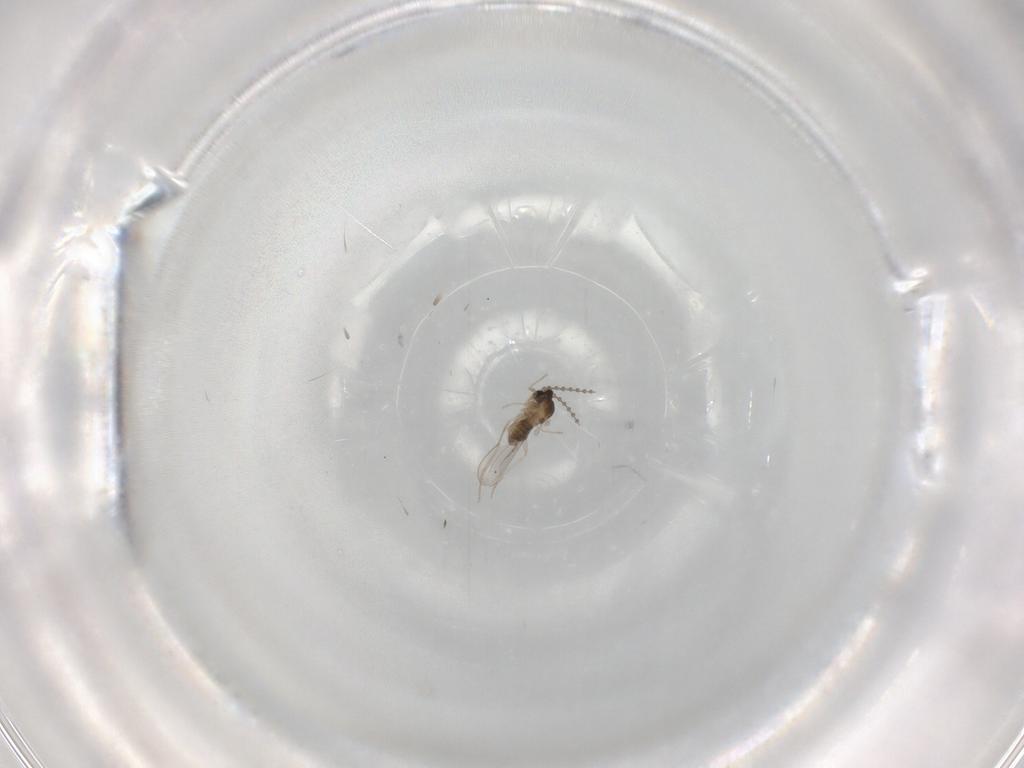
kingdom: Animalia
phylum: Arthropoda
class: Insecta
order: Diptera
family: Cecidomyiidae
